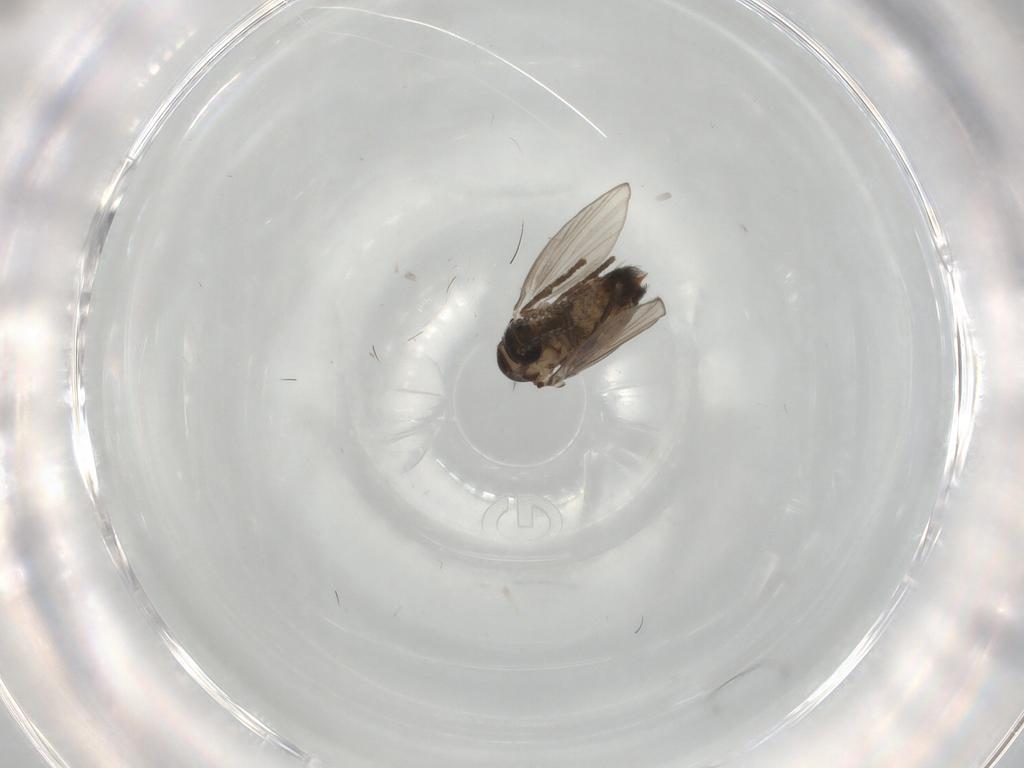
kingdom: Animalia
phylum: Arthropoda
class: Insecta
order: Diptera
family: Psychodidae
